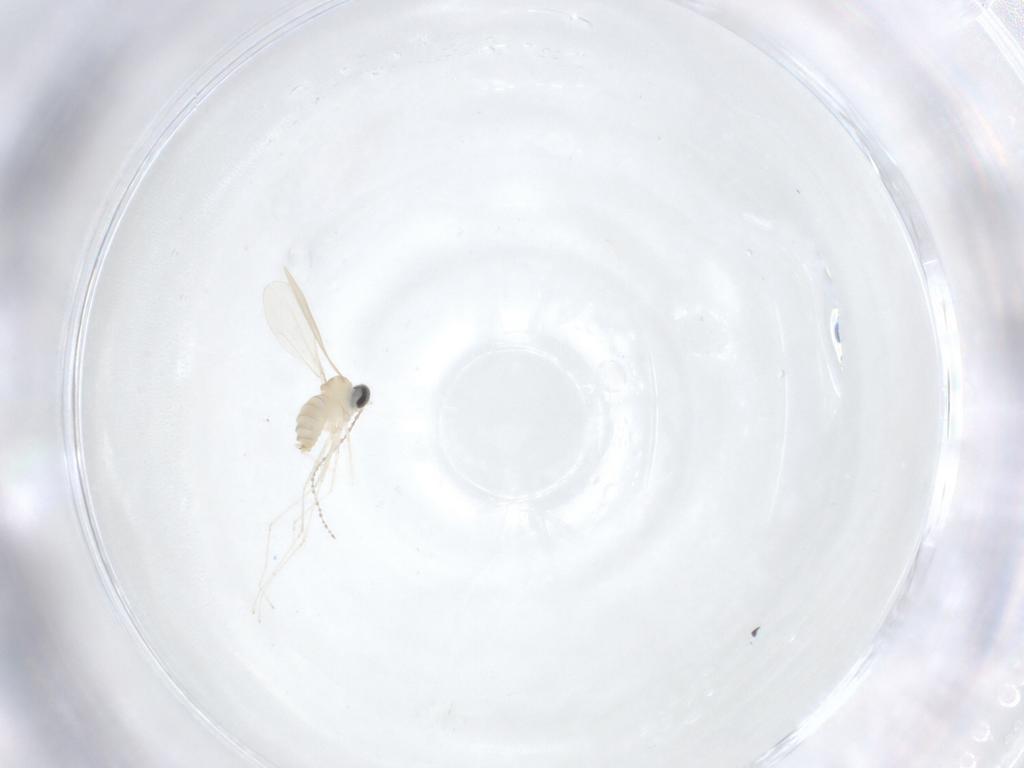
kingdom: Animalia
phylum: Arthropoda
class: Insecta
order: Diptera
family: Cecidomyiidae
